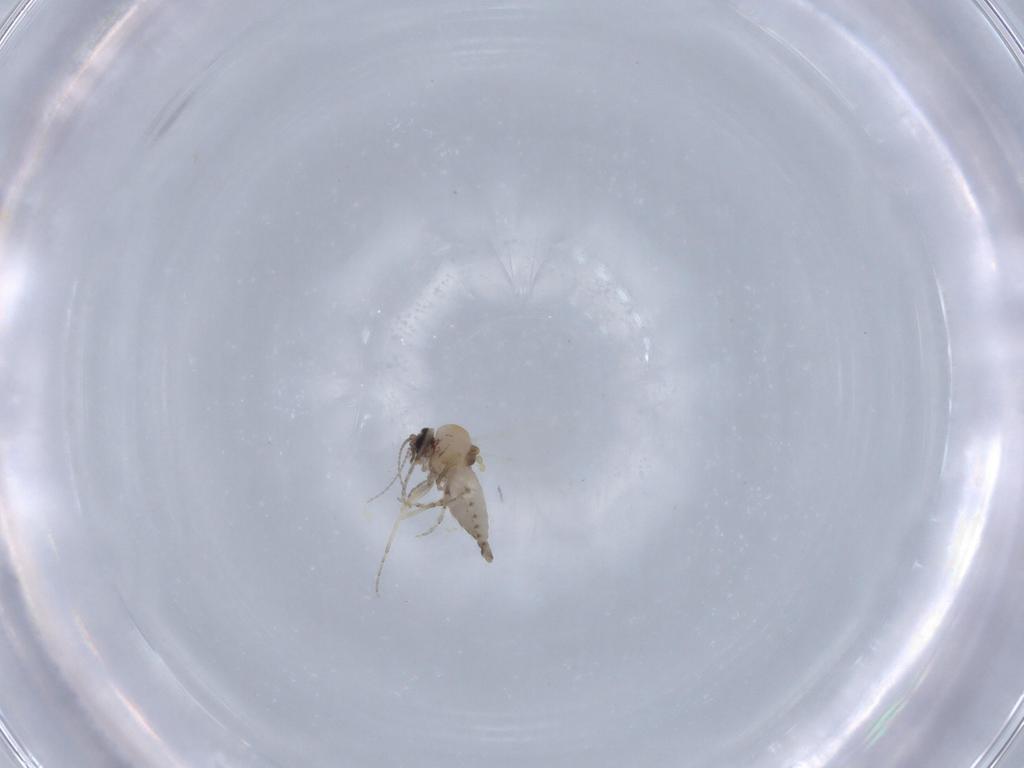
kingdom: Animalia
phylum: Arthropoda
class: Insecta
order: Diptera
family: Ceratopogonidae
